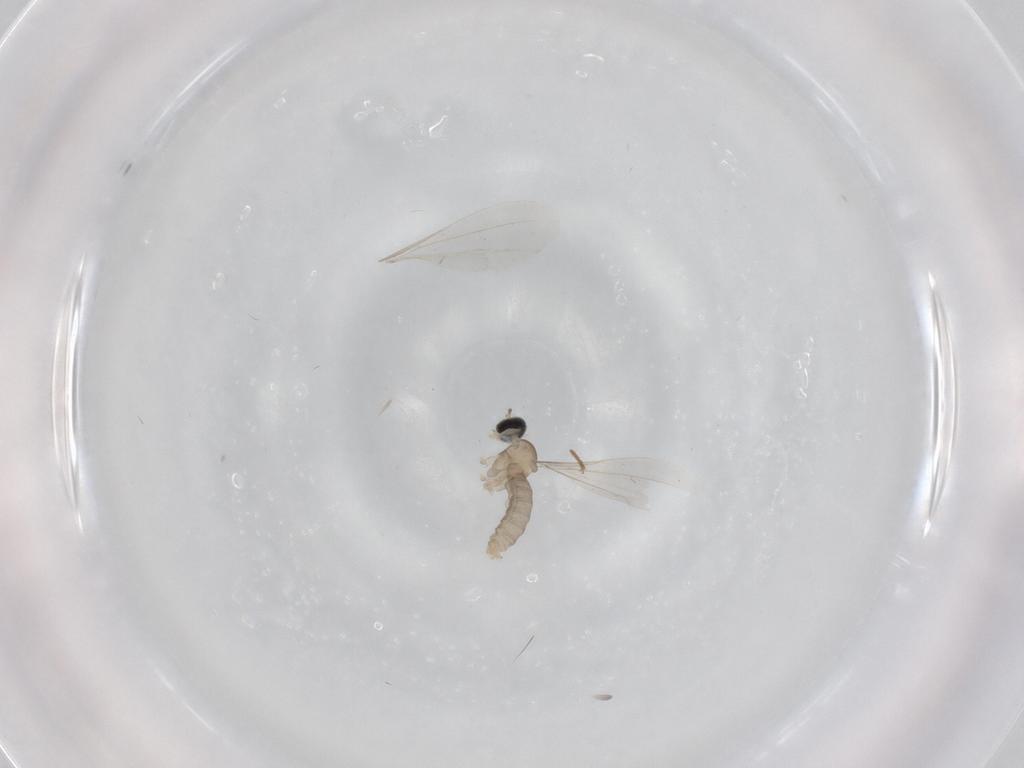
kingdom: Animalia
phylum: Arthropoda
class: Insecta
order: Diptera
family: Cecidomyiidae
